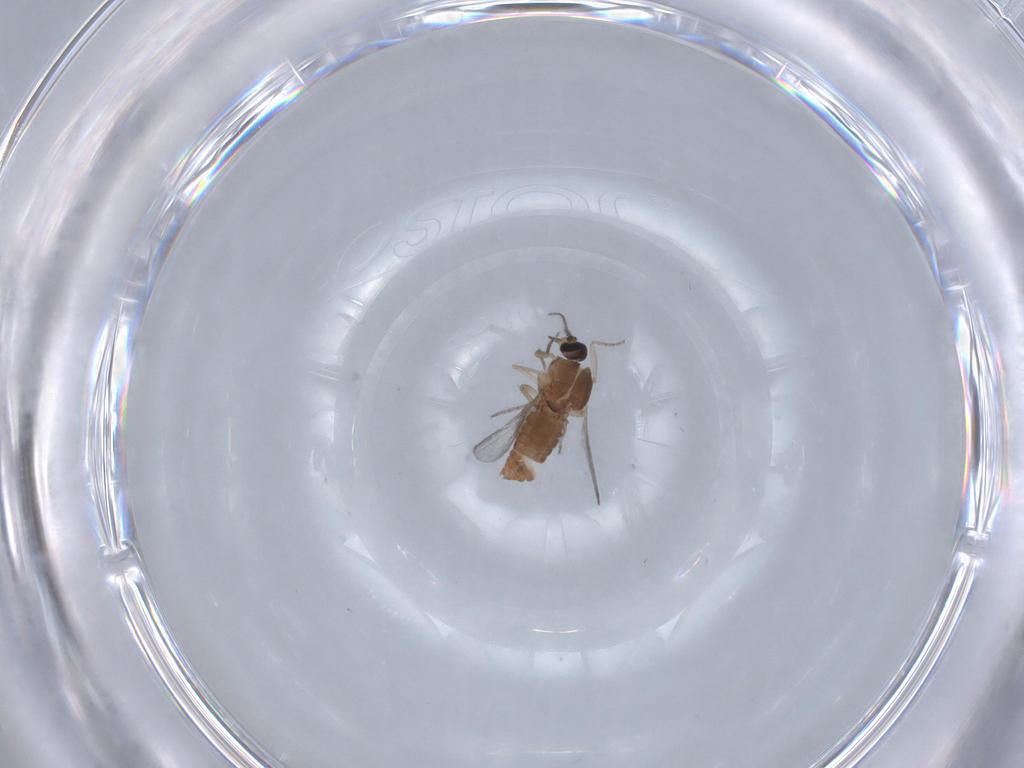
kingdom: Animalia
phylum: Arthropoda
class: Insecta
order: Diptera
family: Ceratopogonidae
